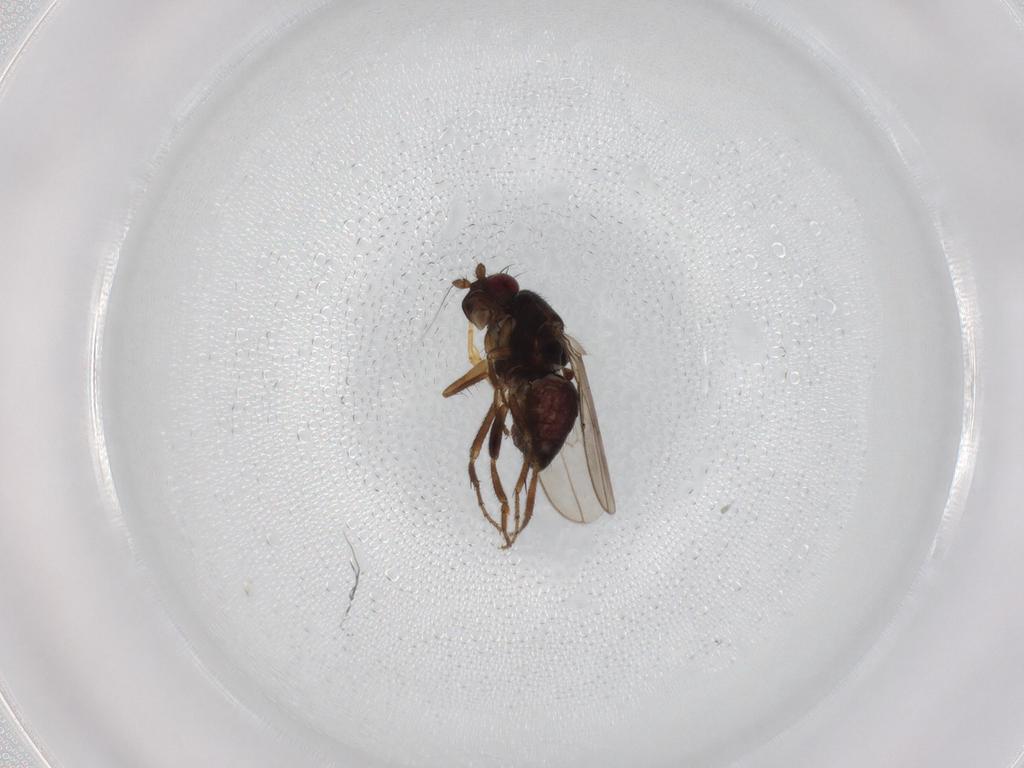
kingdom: Animalia
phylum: Arthropoda
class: Insecta
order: Diptera
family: Sphaeroceridae
